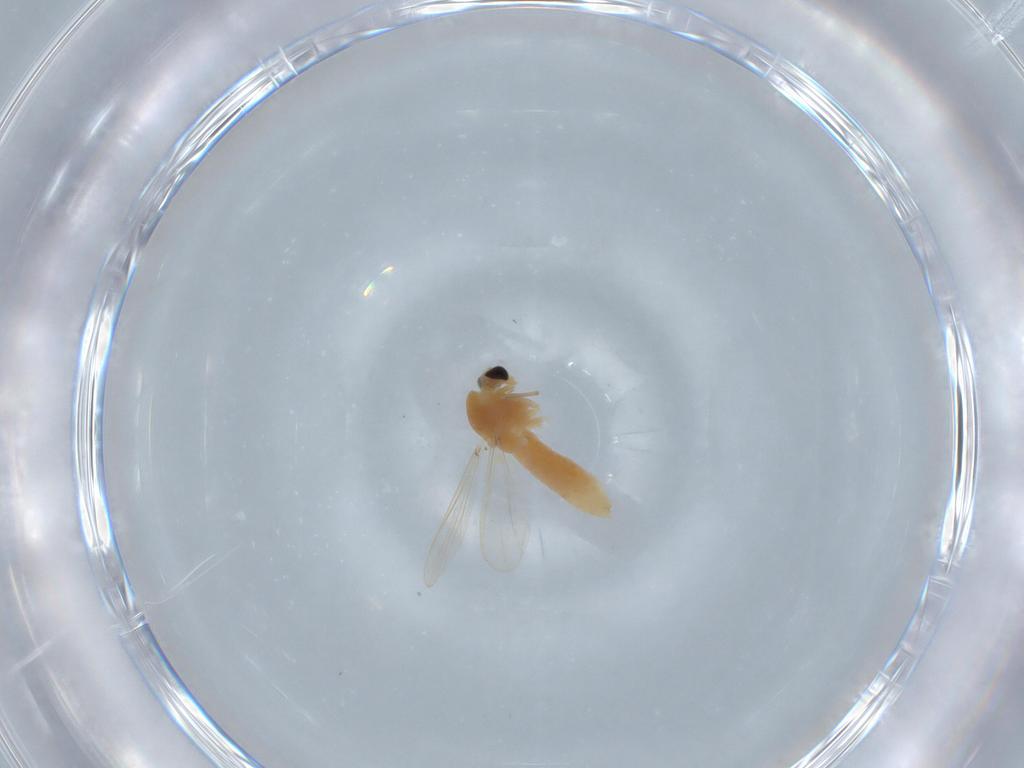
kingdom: Animalia
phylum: Arthropoda
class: Insecta
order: Diptera
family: Chironomidae
